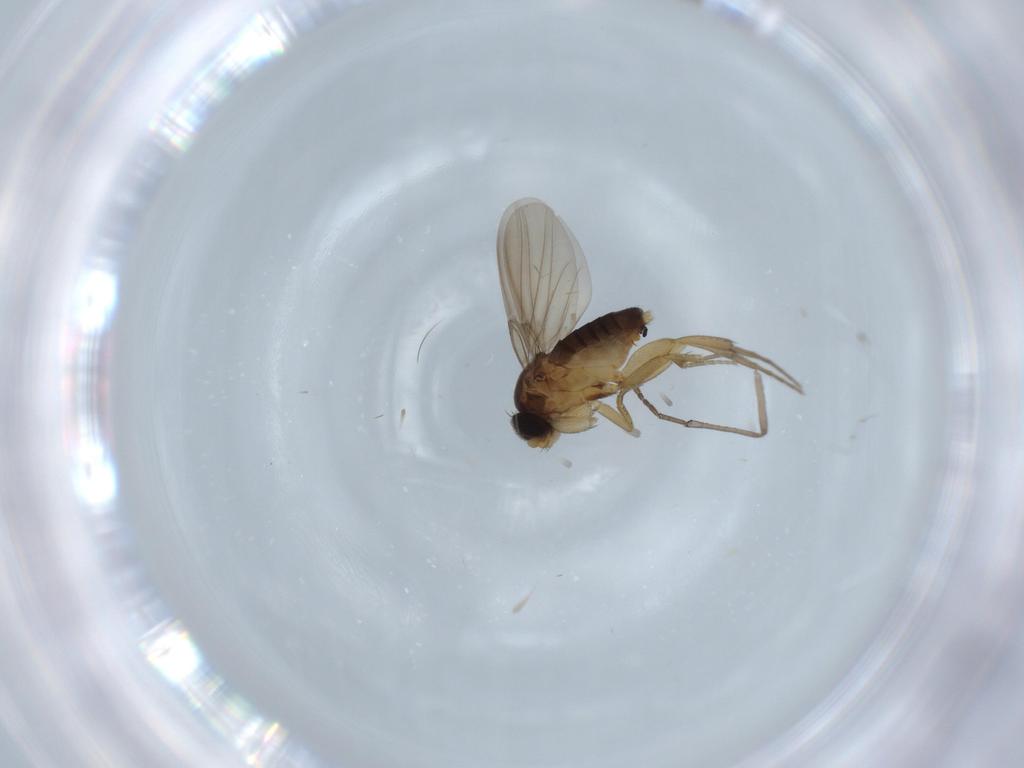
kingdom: Animalia
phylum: Arthropoda
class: Insecta
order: Diptera
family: Phoridae
